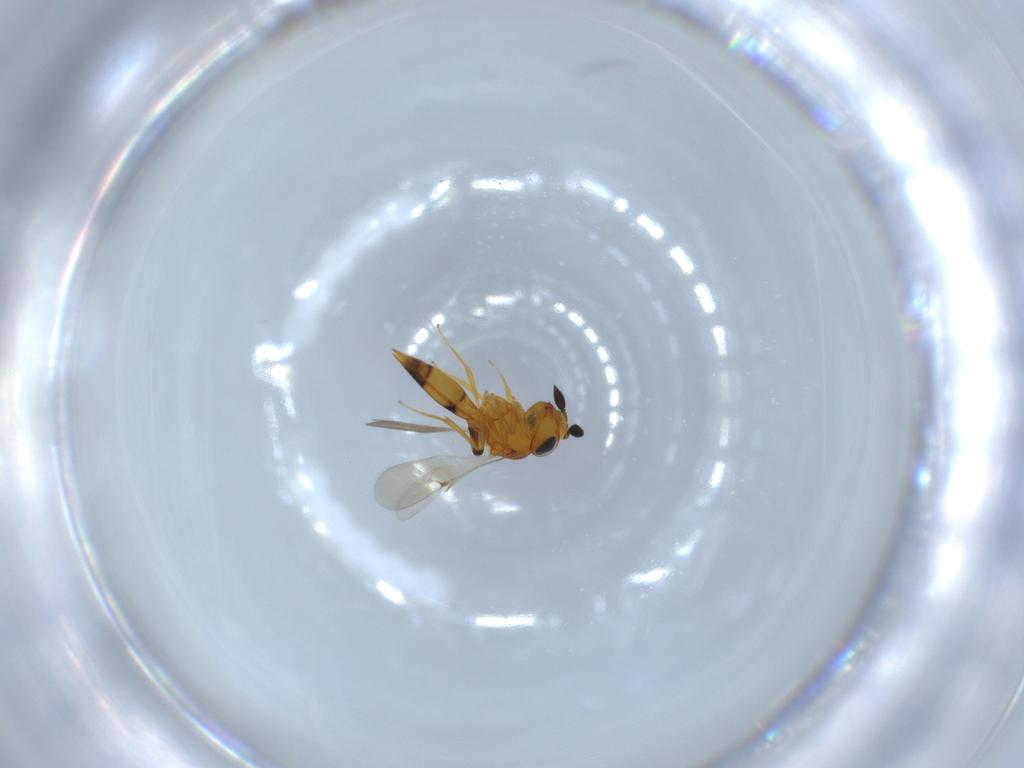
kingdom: Animalia
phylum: Arthropoda
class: Insecta
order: Hymenoptera
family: Scelionidae
